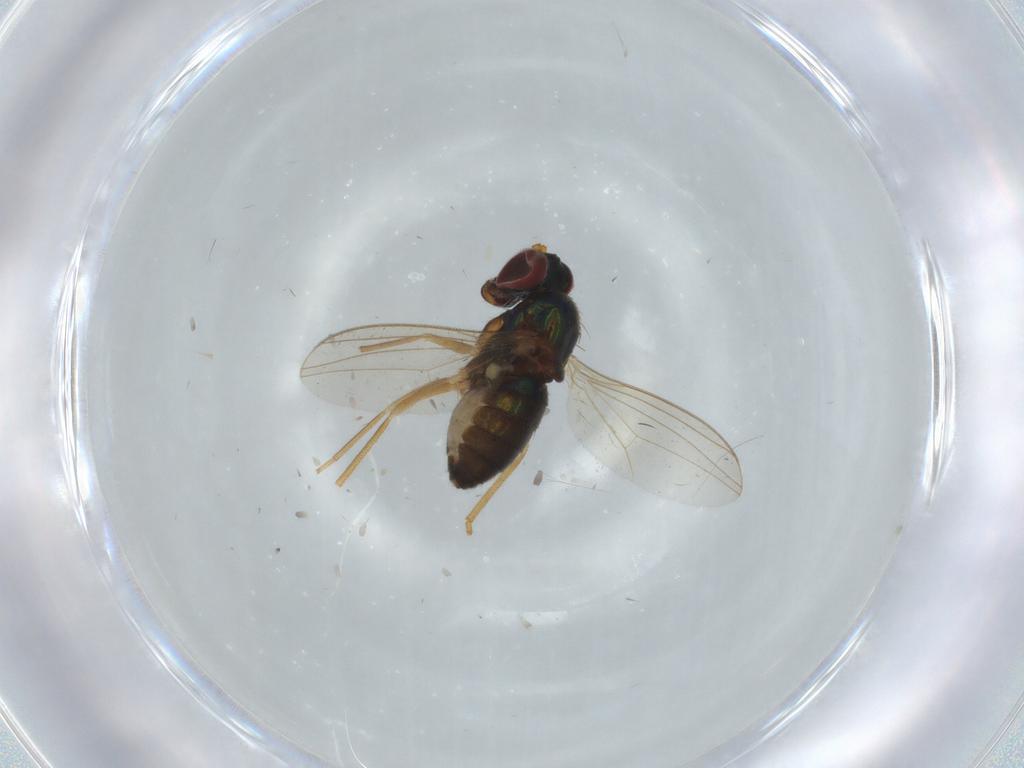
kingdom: Animalia
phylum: Arthropoda
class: Insecta
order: Diptera
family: Dolichopodidae
